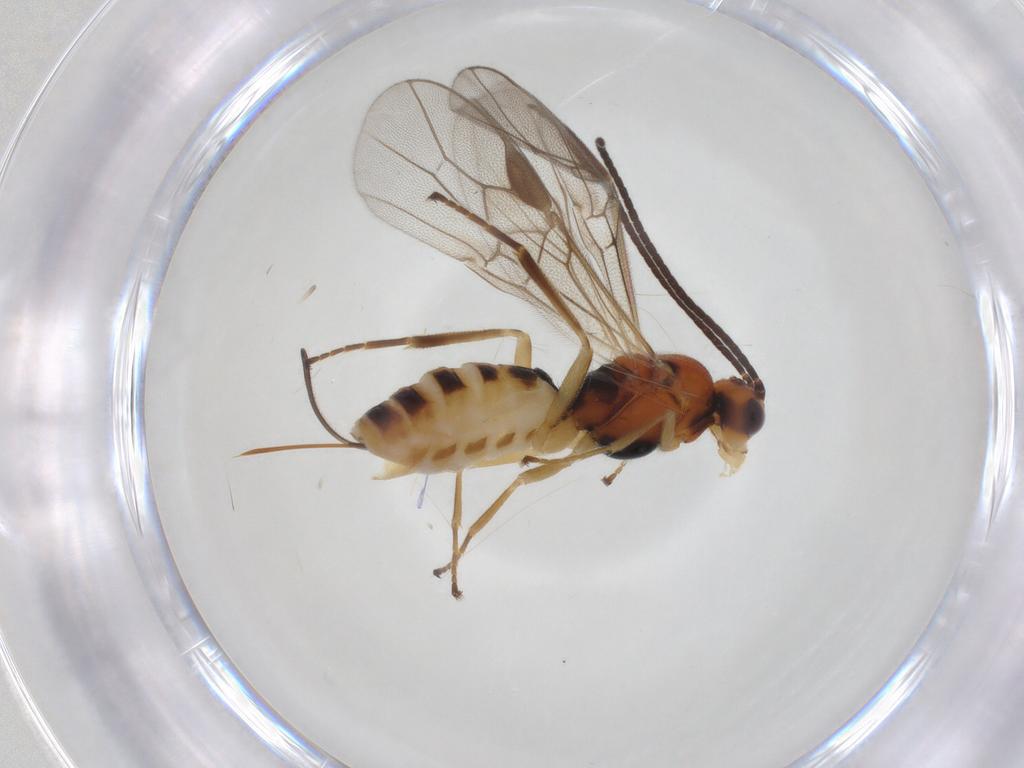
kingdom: Animalia
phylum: Arthropoda
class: Insecta
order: Hymenoptera
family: Braconidae
